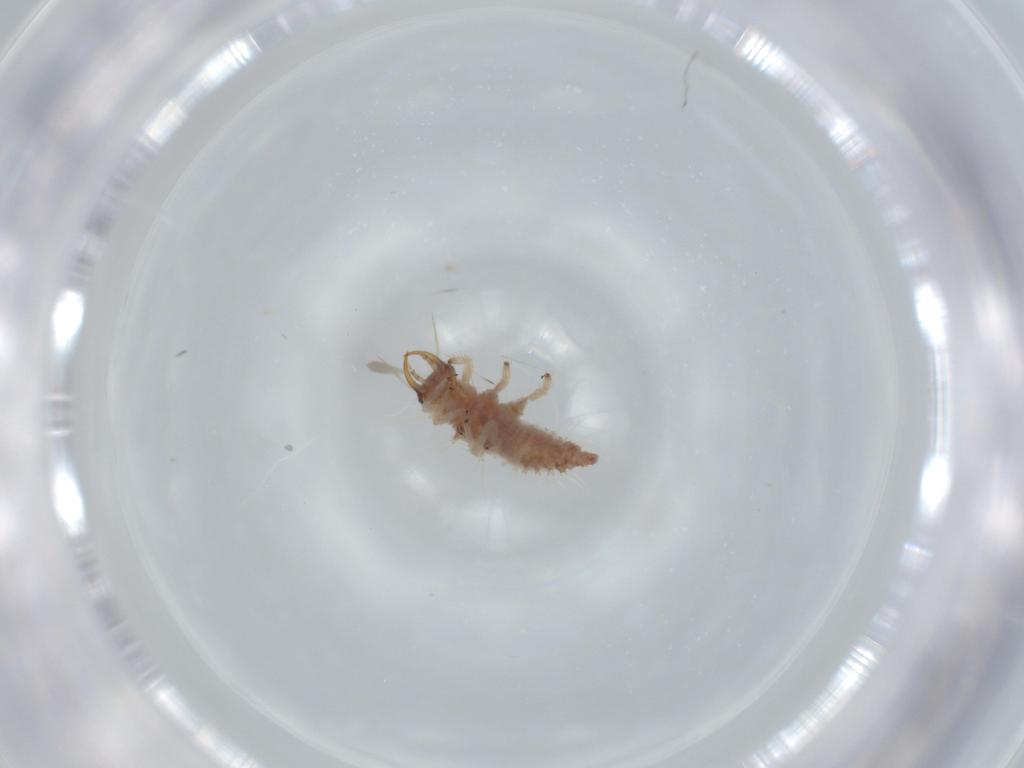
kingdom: Animalia
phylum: Arthropoda
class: Insecta
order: Neuroptera
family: Chrysopidae
